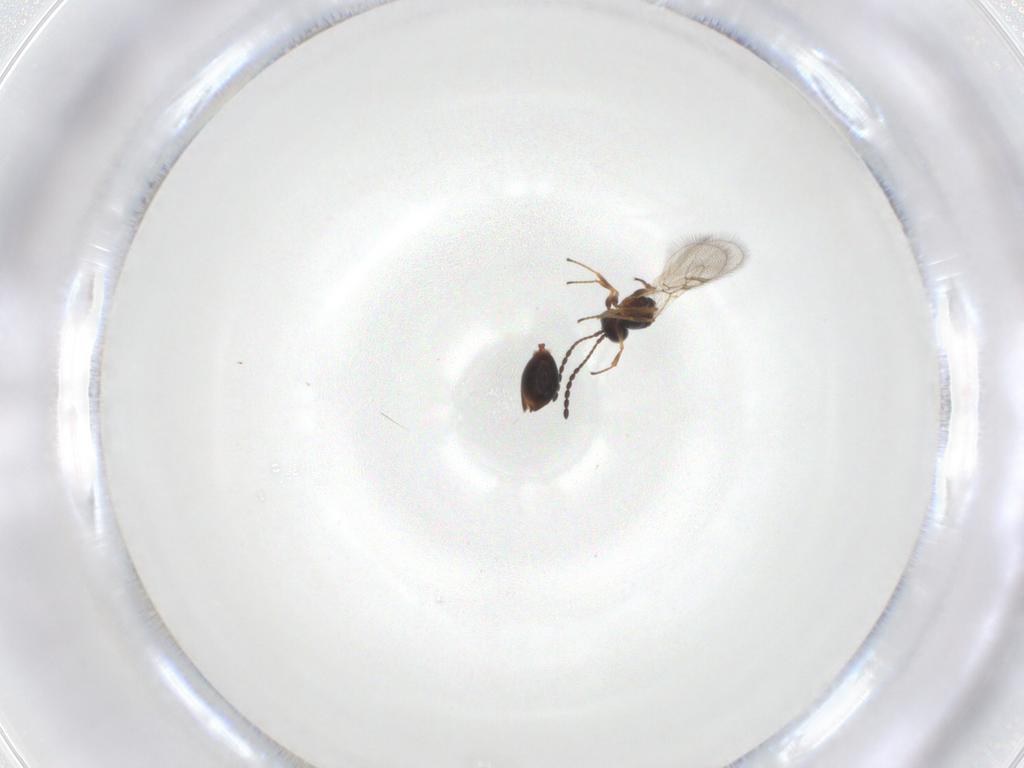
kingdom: Animalia
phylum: Arthropoda
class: Insecta
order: Hymenoptera
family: Figitidae
